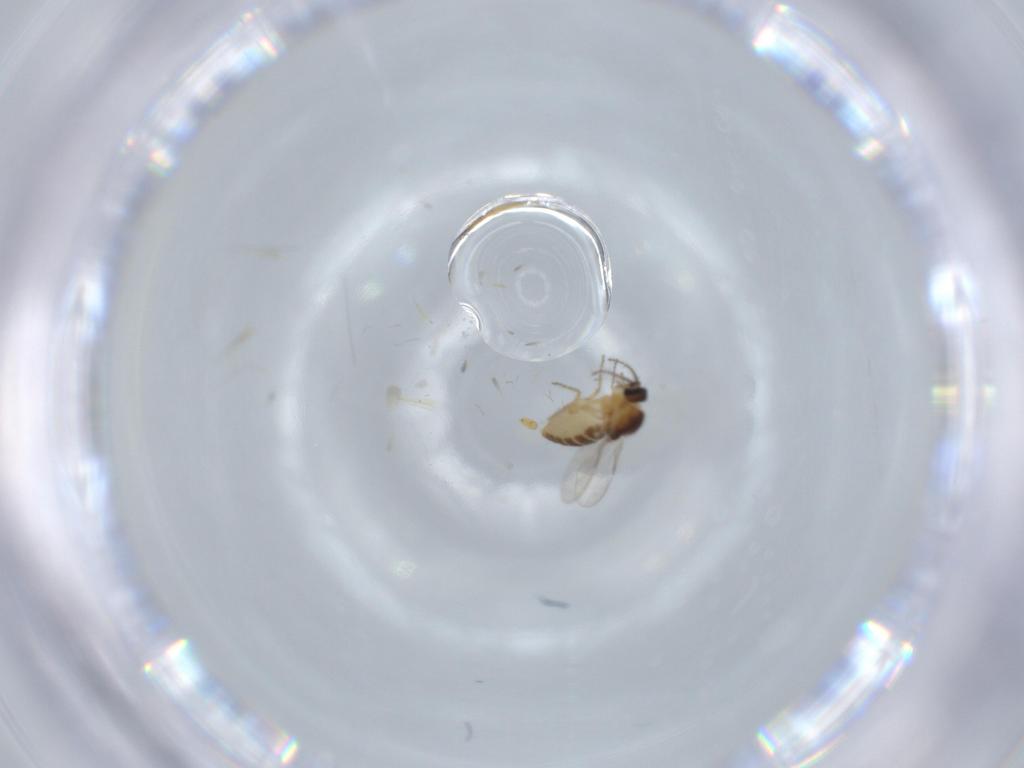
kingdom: Animalia
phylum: Arthropoda
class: Insecta
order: Diptera
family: Ceratopogonidae
